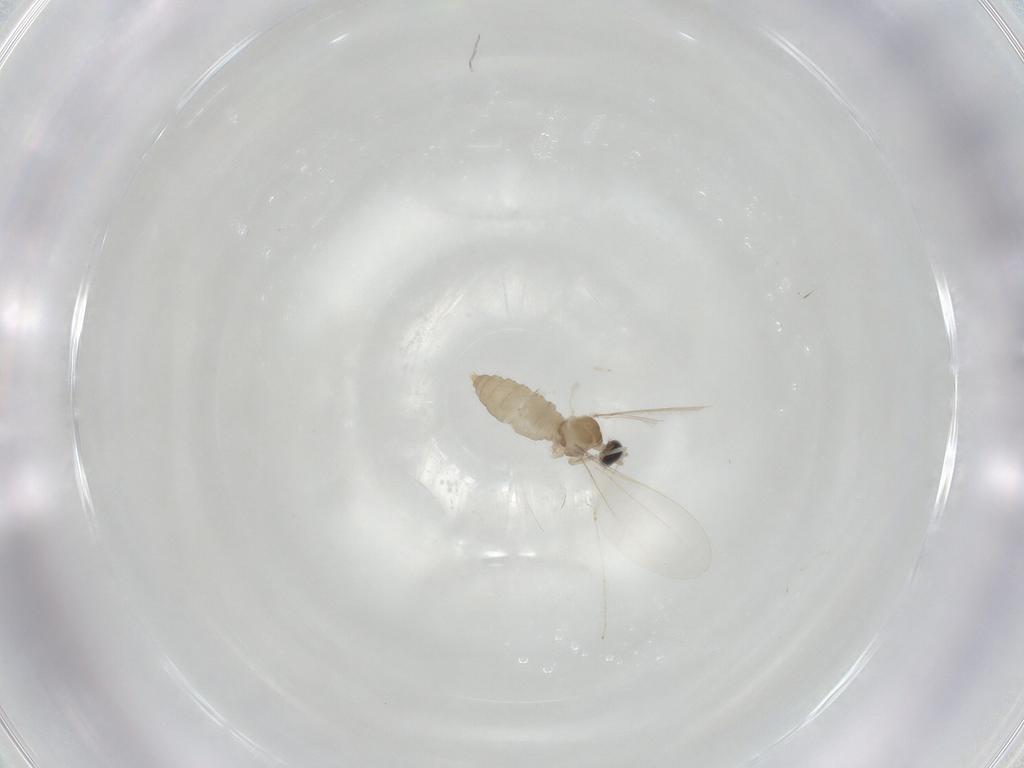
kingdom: Animalia
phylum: Arthropoda
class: Insecta
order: Diptera
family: Cecidomyiidae
